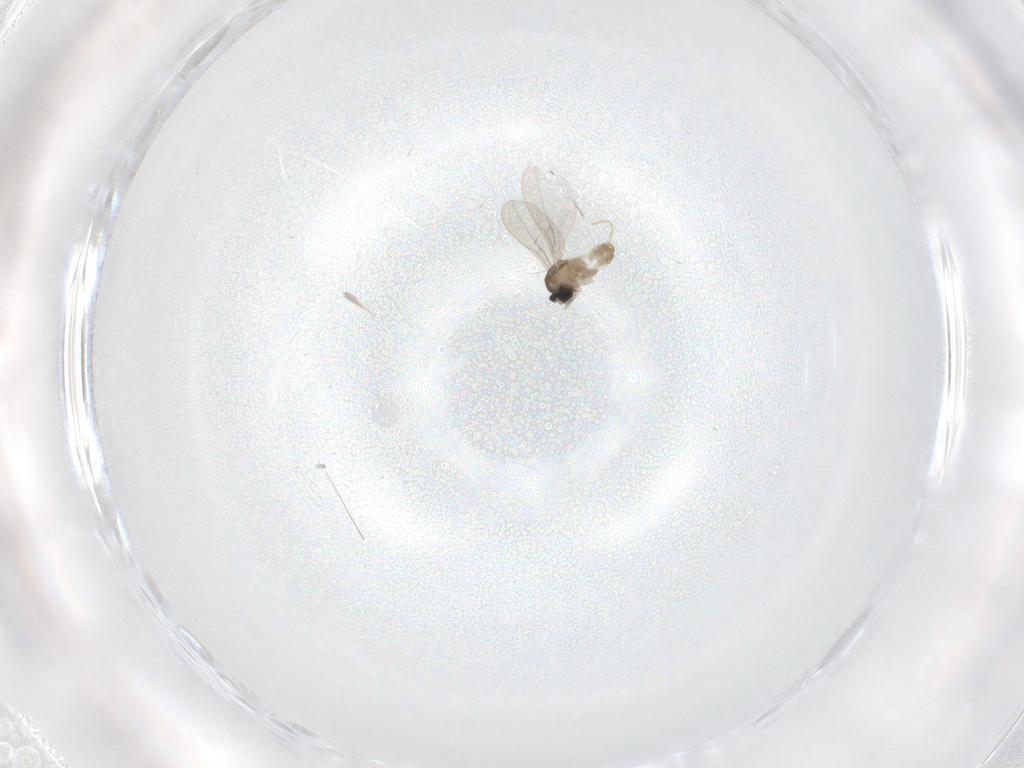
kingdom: Animalia
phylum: Arthropoda
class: Insecta
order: Diptera
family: Cecidomyiidae
